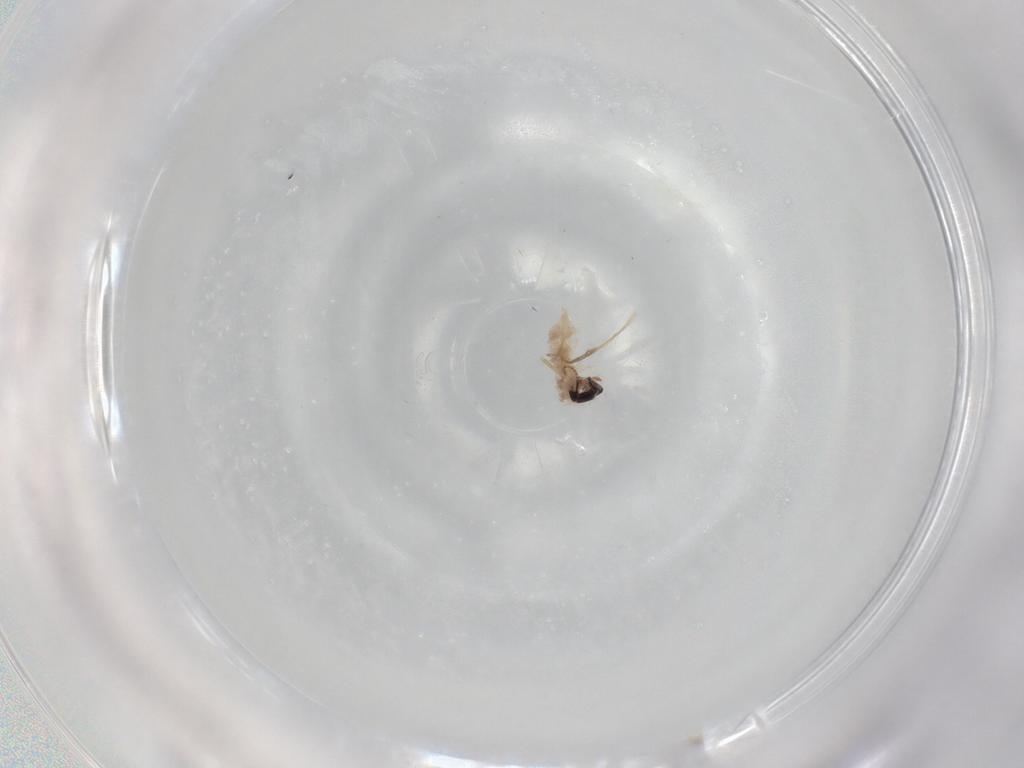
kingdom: Animalia
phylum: Arthropoda
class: Insecta
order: Diptera
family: Chironomidae
